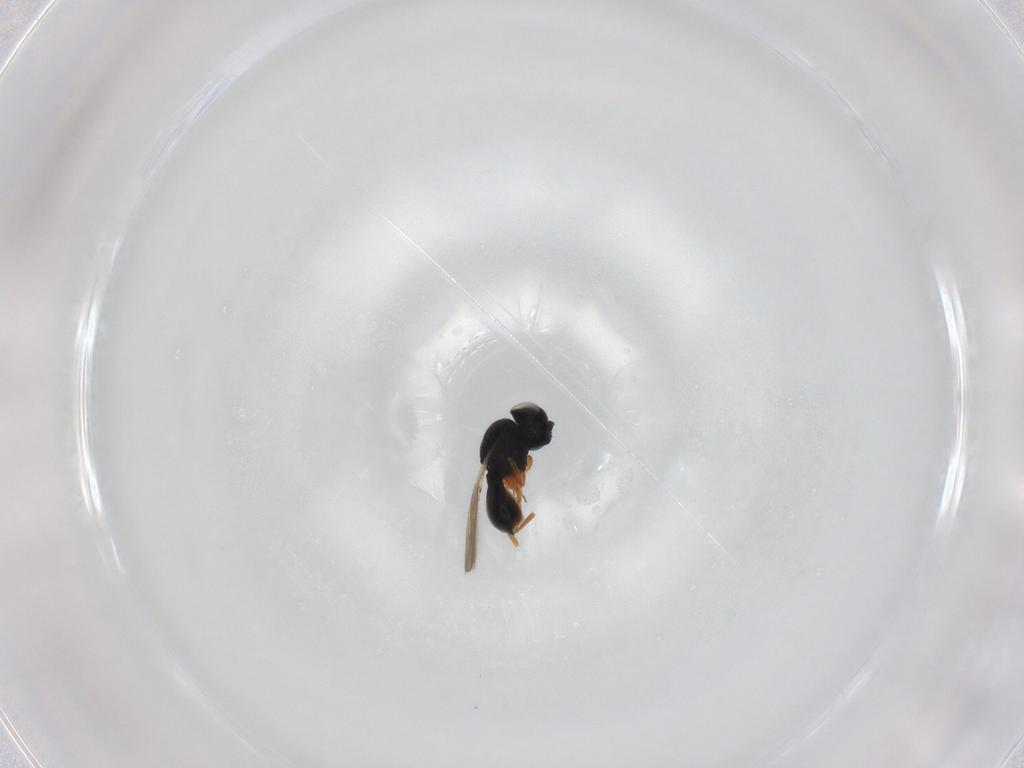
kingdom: Animalia
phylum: Arthropoda
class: Insecta
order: Hymenoptera
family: Scelionidae
